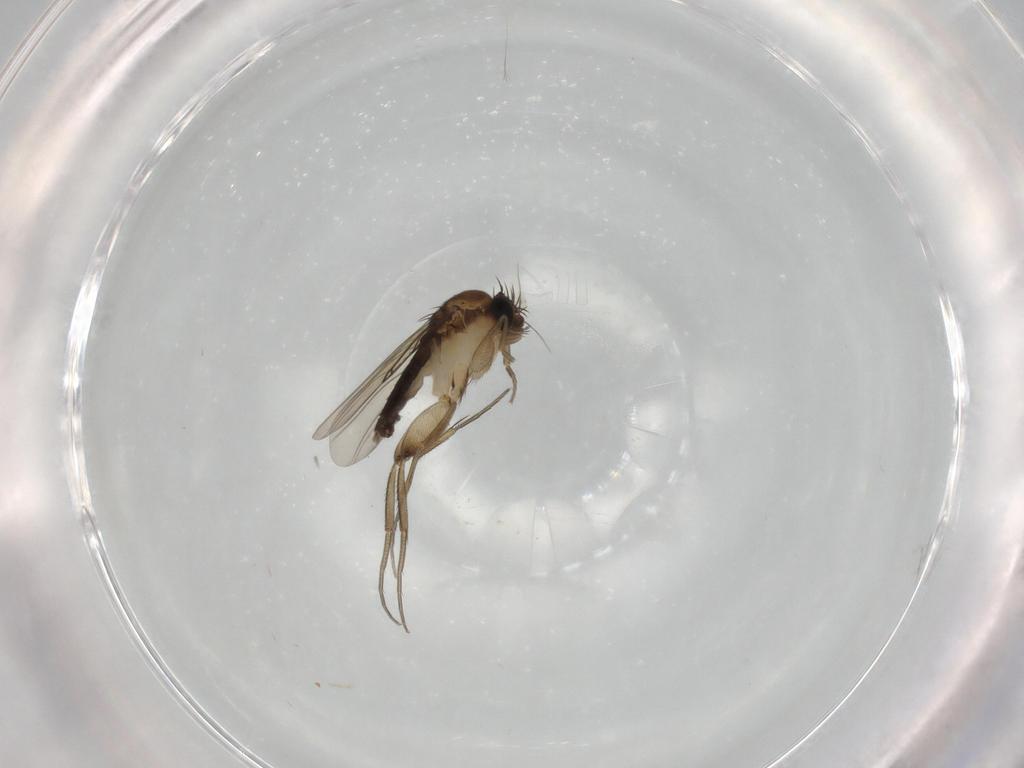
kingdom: Animalia
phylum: Arthropoda
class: Insecta
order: Diptera
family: Phoridae
